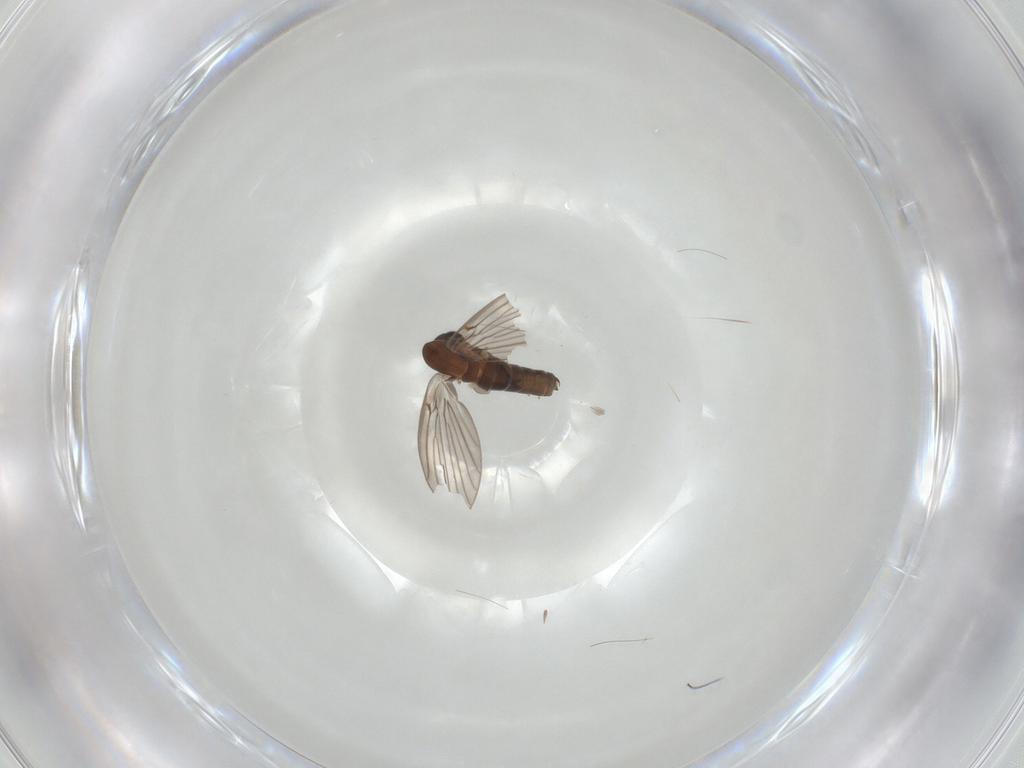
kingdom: Animalia
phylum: Arthropoda
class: Insecta
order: Diptera
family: Psychodidae
